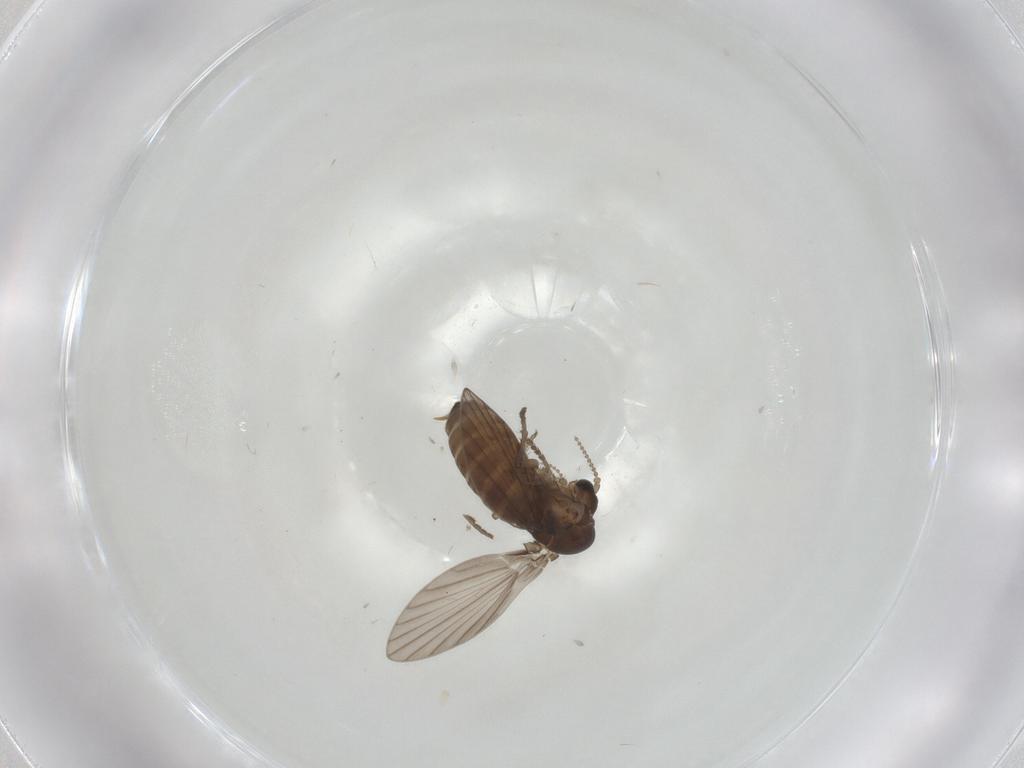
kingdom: Animalia
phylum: Arthropoda
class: Insecta
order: Diptera
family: Psychodidae
